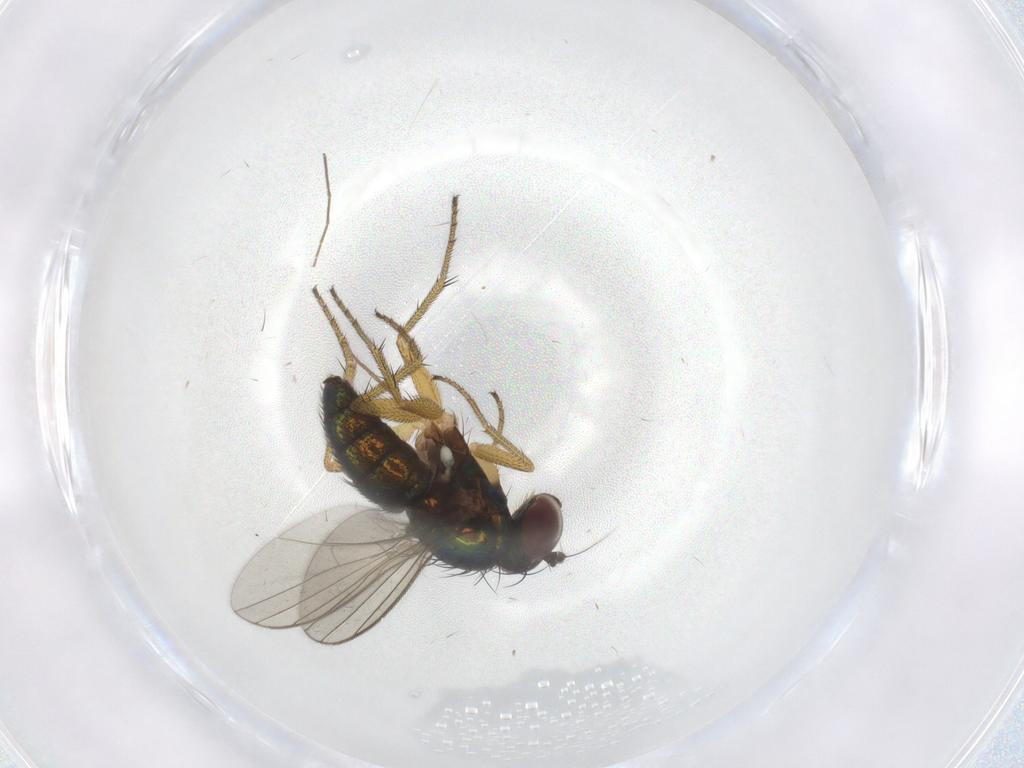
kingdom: Animalia
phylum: Arthropoda
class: Insecta
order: Diptera
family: Dolichopodidae
